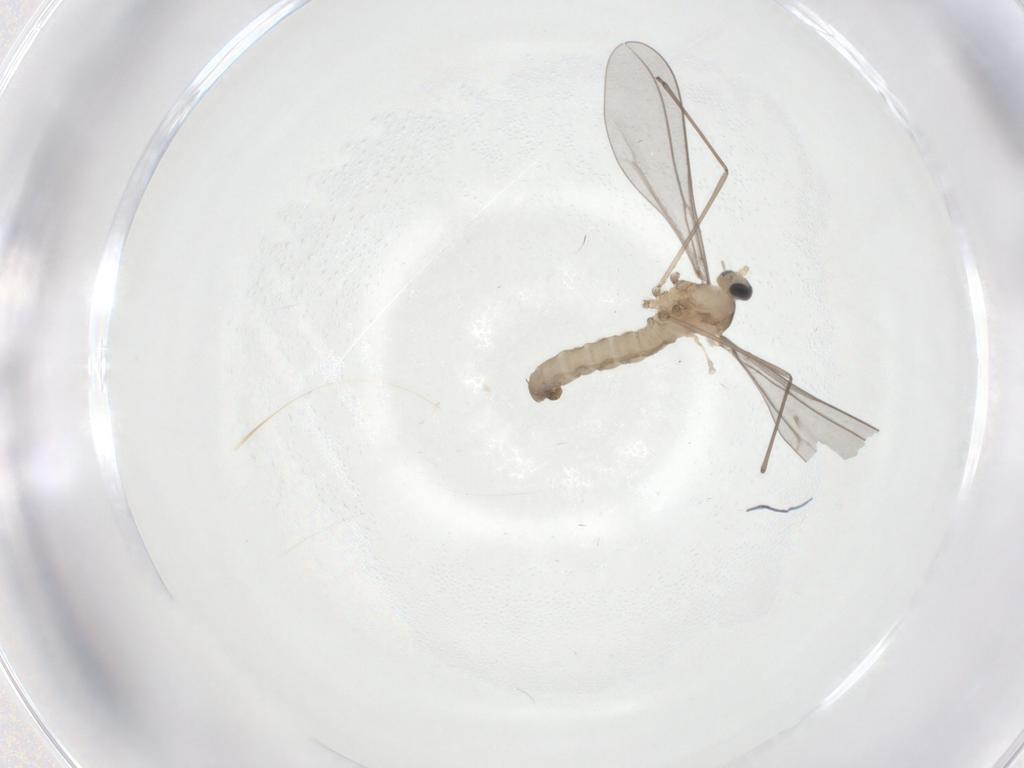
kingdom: Animalia
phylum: Arthropoda
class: Insecta
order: Diptera
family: Cecidomyiidae
